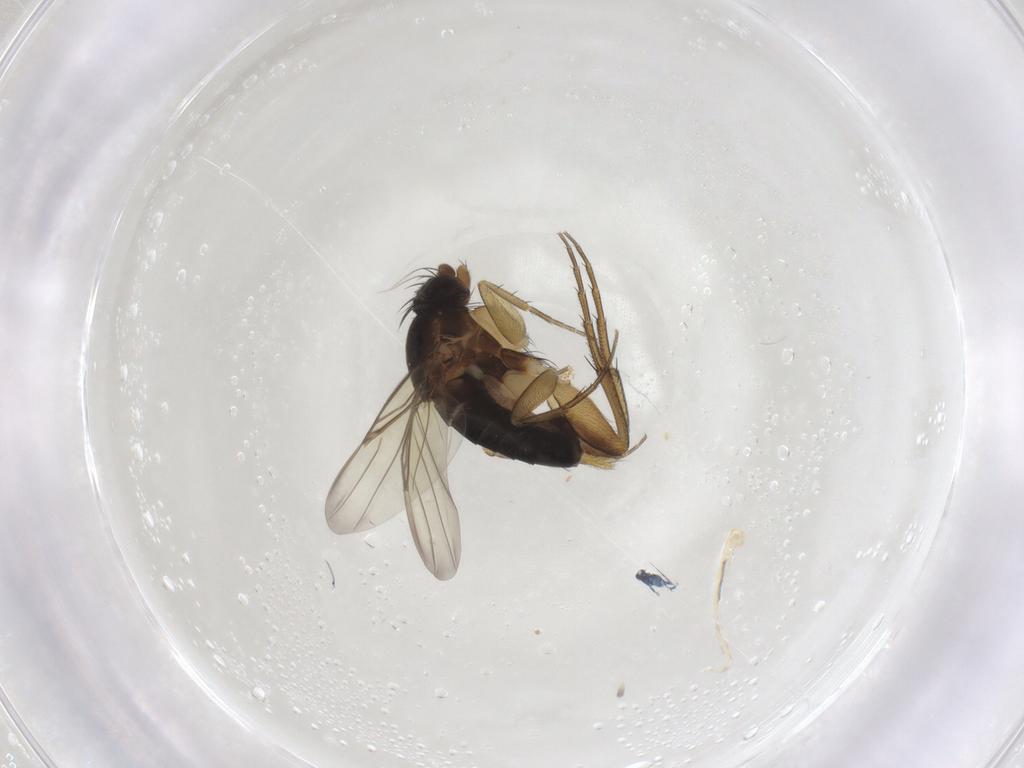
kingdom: Animalia
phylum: Arthropoda
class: Insecta
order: Diptera
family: Phoridae
